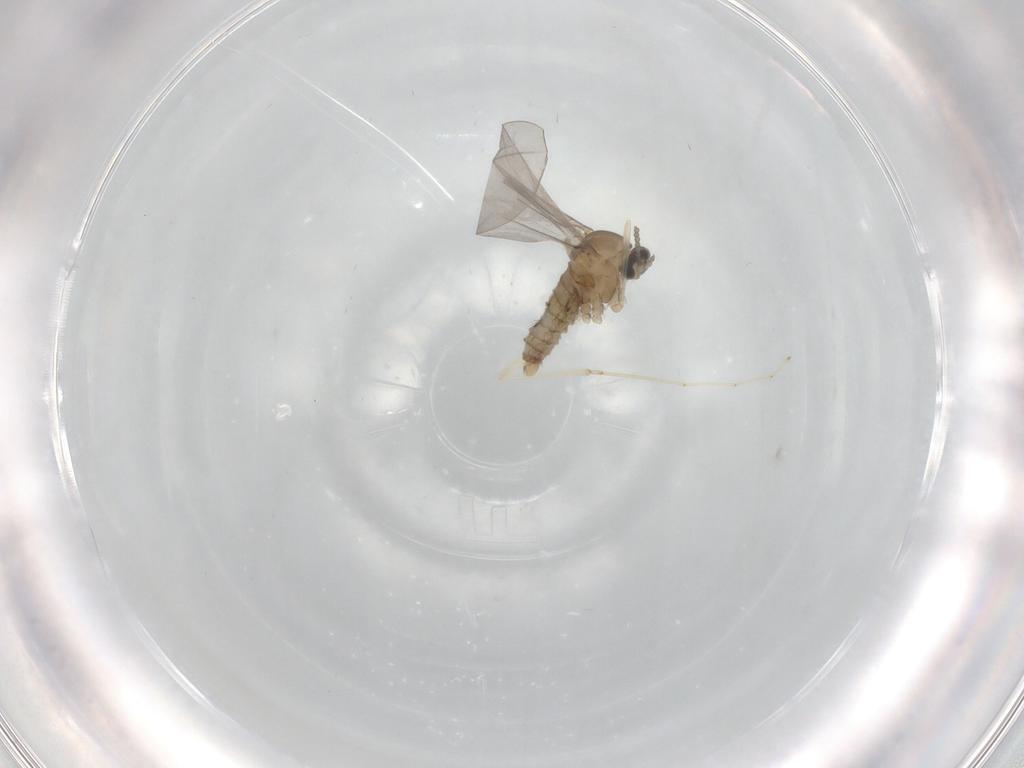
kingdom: Animalia
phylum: Arthropoda
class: Insecta
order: Diptera
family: Cecidomyiidae
